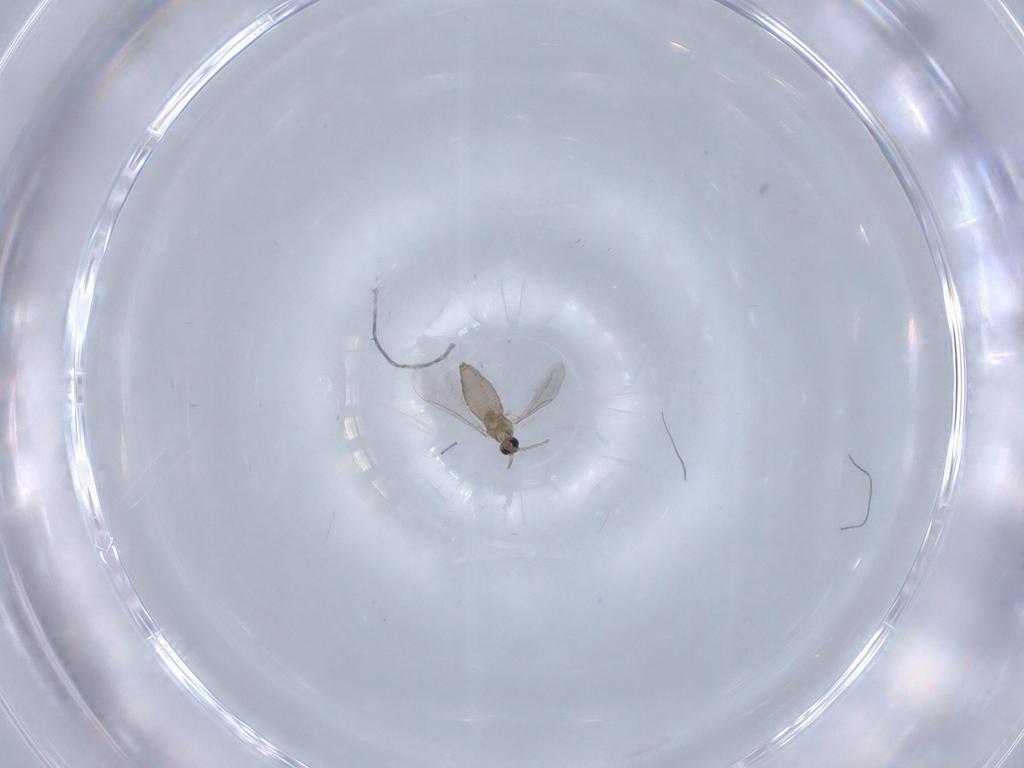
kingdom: Animalia
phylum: Arthropoda
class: Insecta
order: Diptera
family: Cecidomyiidae
